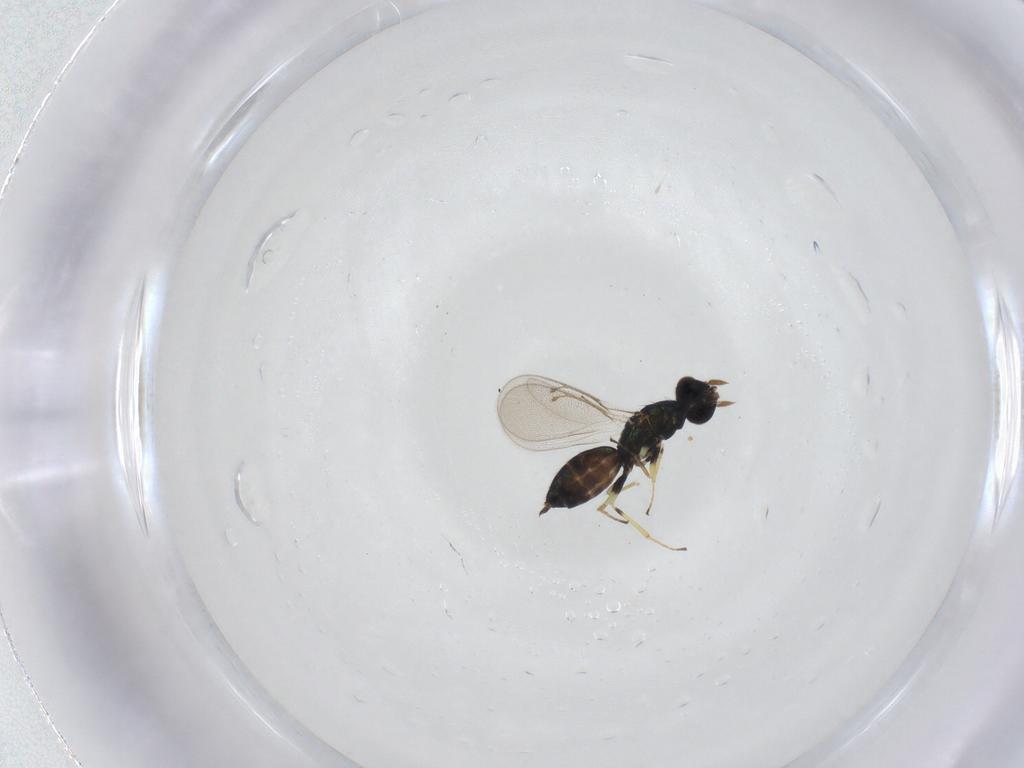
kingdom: Animalia
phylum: Arthropoda
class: Insecta
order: Hymenoptera
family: Eulophidae
